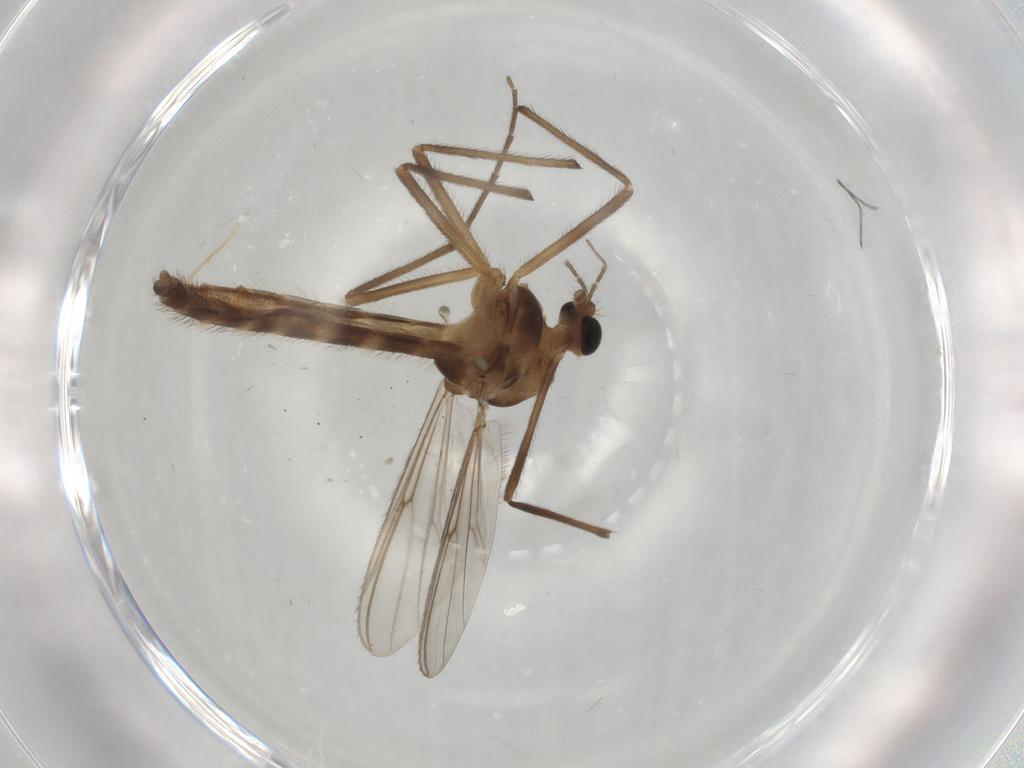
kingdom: Animalia
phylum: Arthropoda
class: Insecta
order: Diptera
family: Chironomidae
